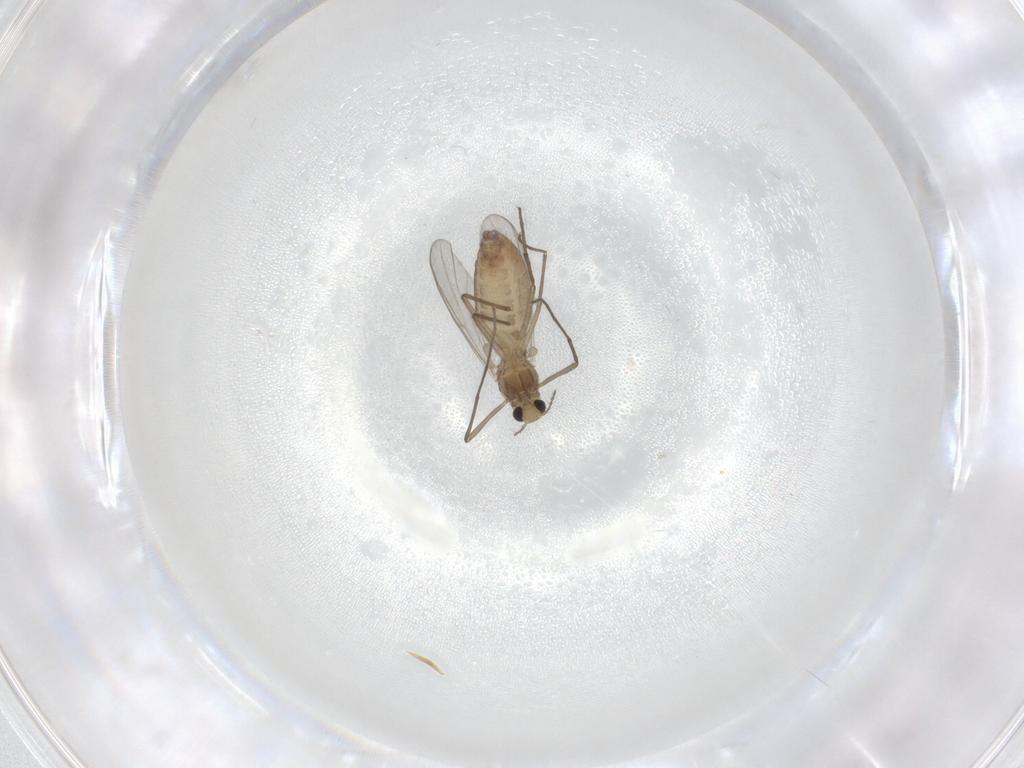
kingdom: Animalia
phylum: Arthropoda
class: Insecta
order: Diptera
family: Chironomidae
